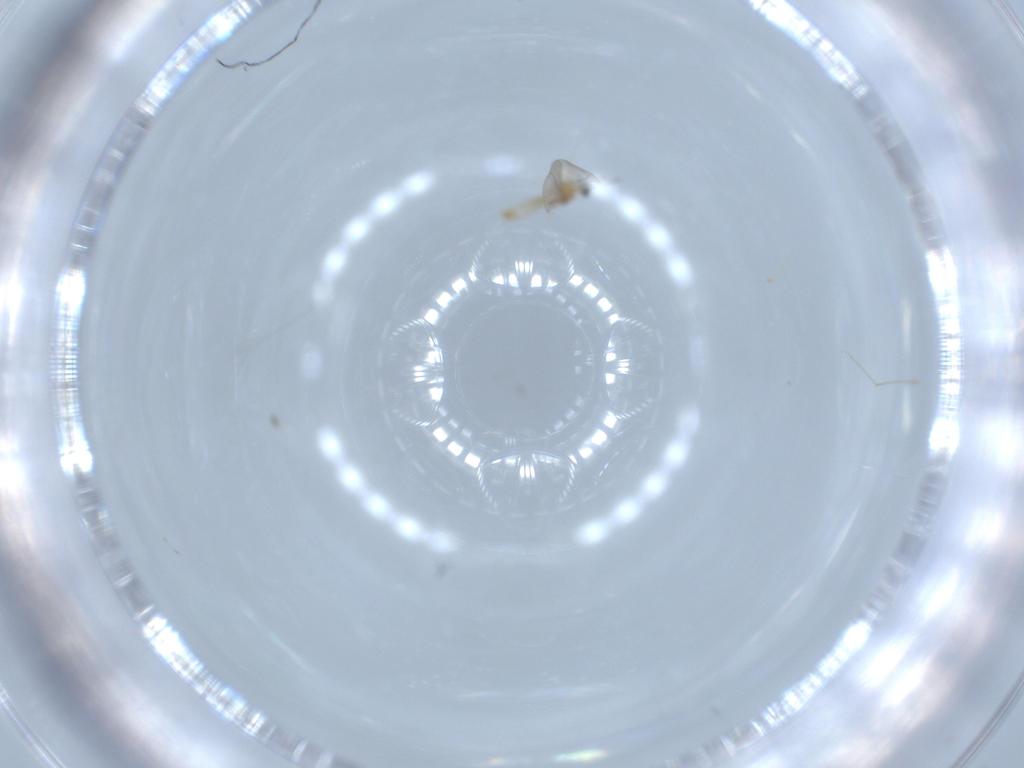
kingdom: Animalia
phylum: Arthropoda
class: Insecta
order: Diptera
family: Cecidomyiidae
